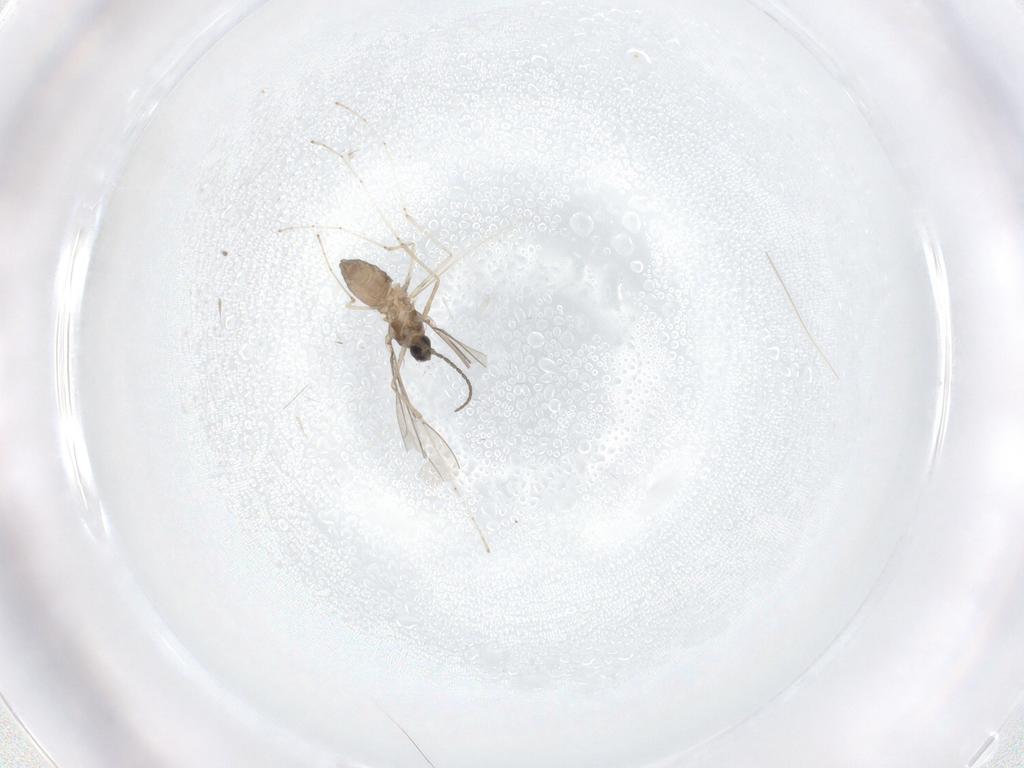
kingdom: Animalia
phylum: Arthropoda
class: Insecta
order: Diptera
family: Cecidomyiidae
